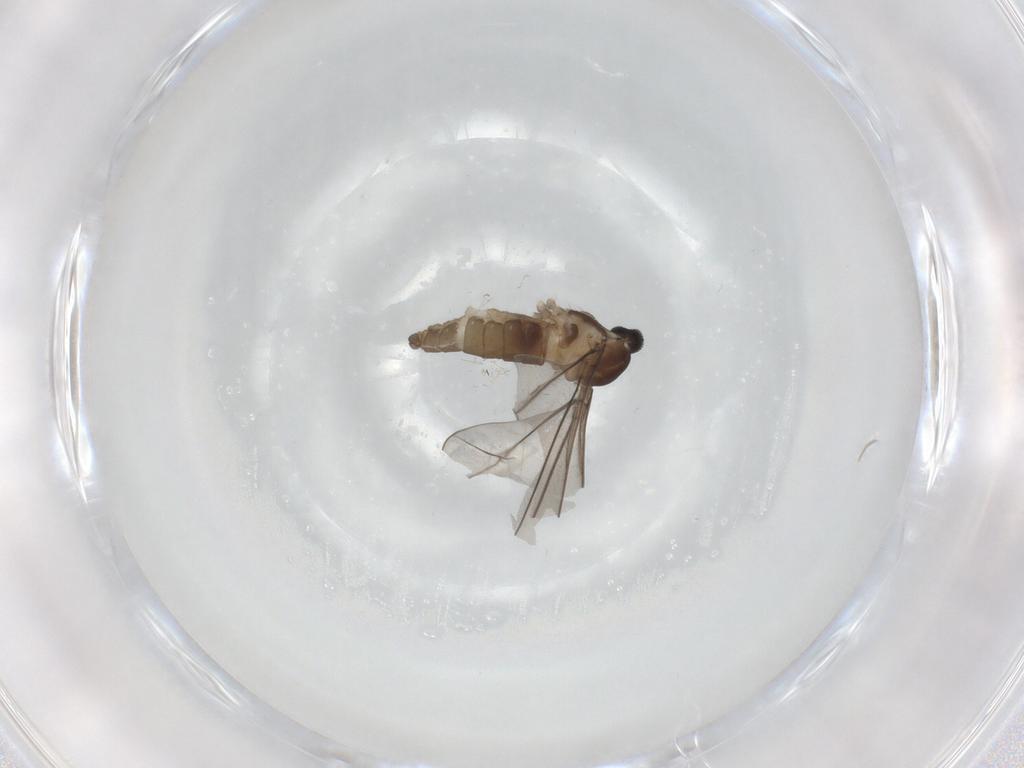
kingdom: Animalia
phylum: Arthropoda
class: Insecta
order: Diptera
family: Sphaeroceridae
